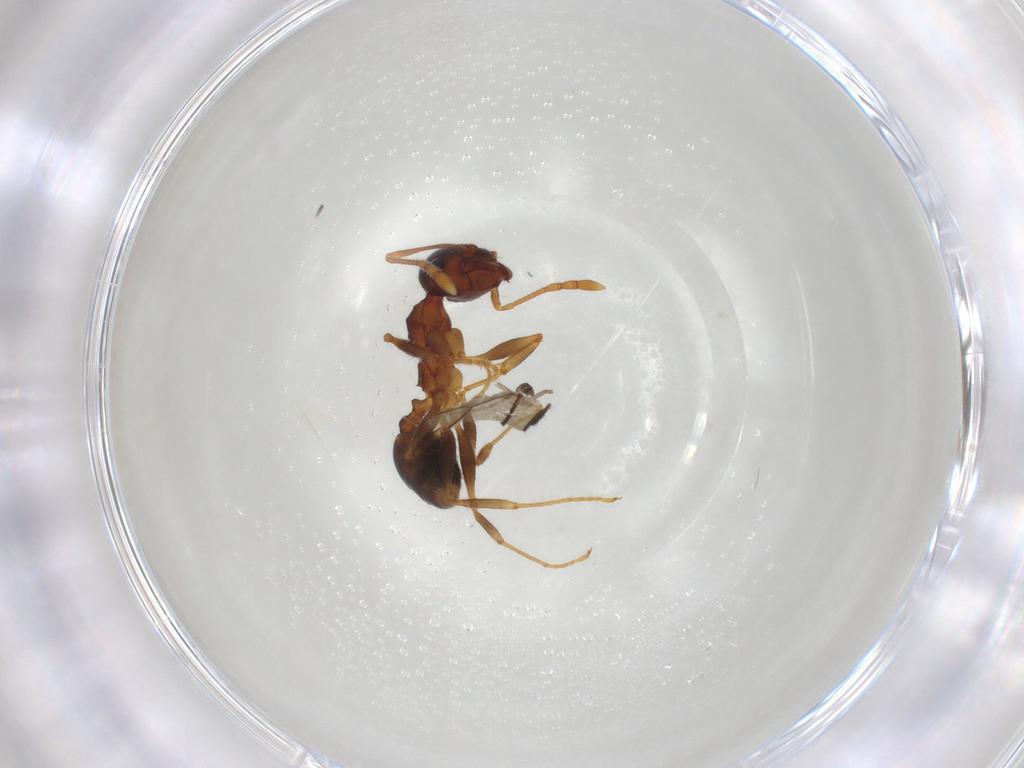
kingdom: Animalia
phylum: Arthropoda
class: Insecta
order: Hymenoptera
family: Formicidae
